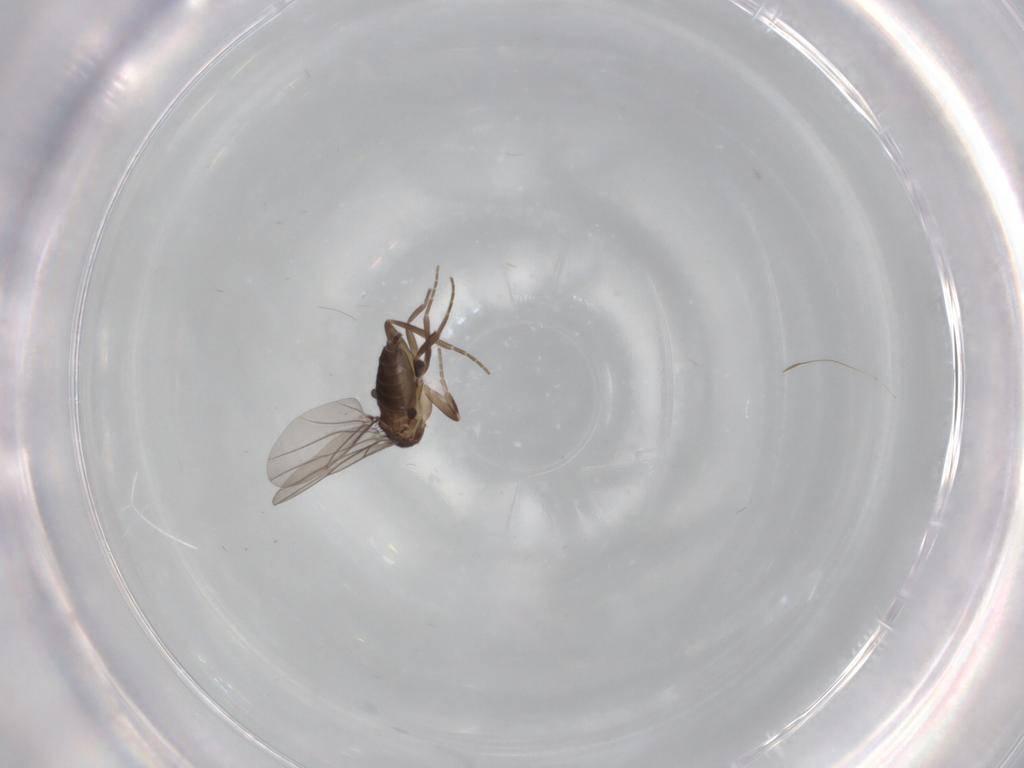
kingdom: Animalia
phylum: Arthropoda
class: Insecta
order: Diptera
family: Phoridae
